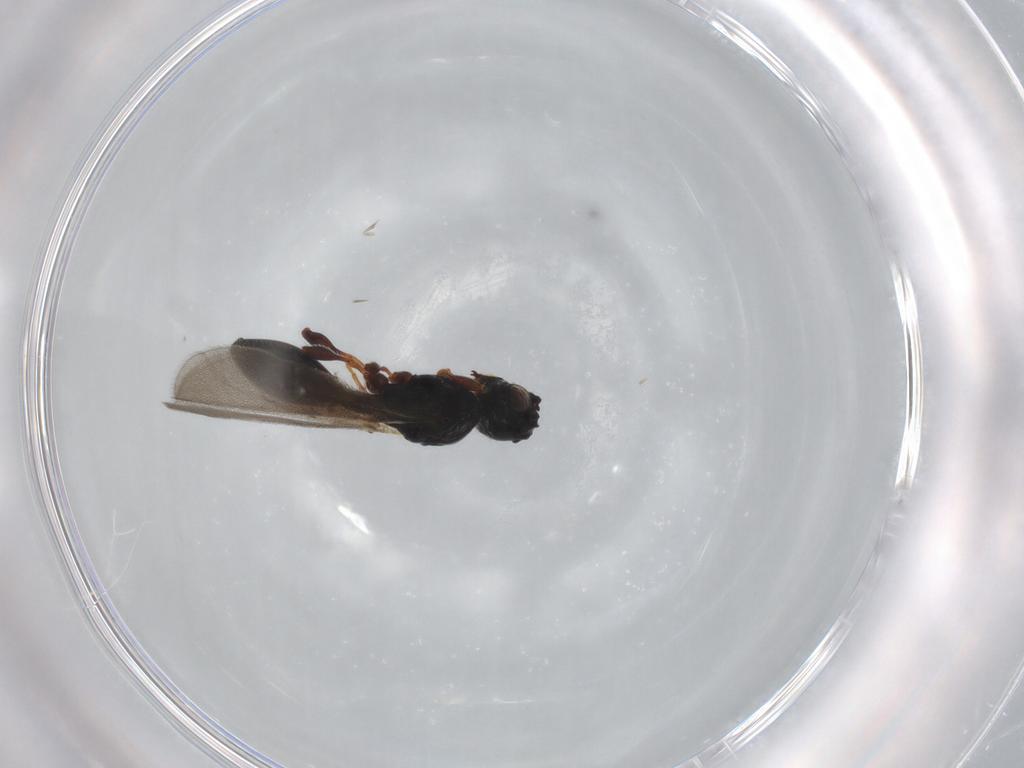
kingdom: Animalia
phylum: Arthropoda
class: Insecta
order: Hymenoptera
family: Diapriidae
